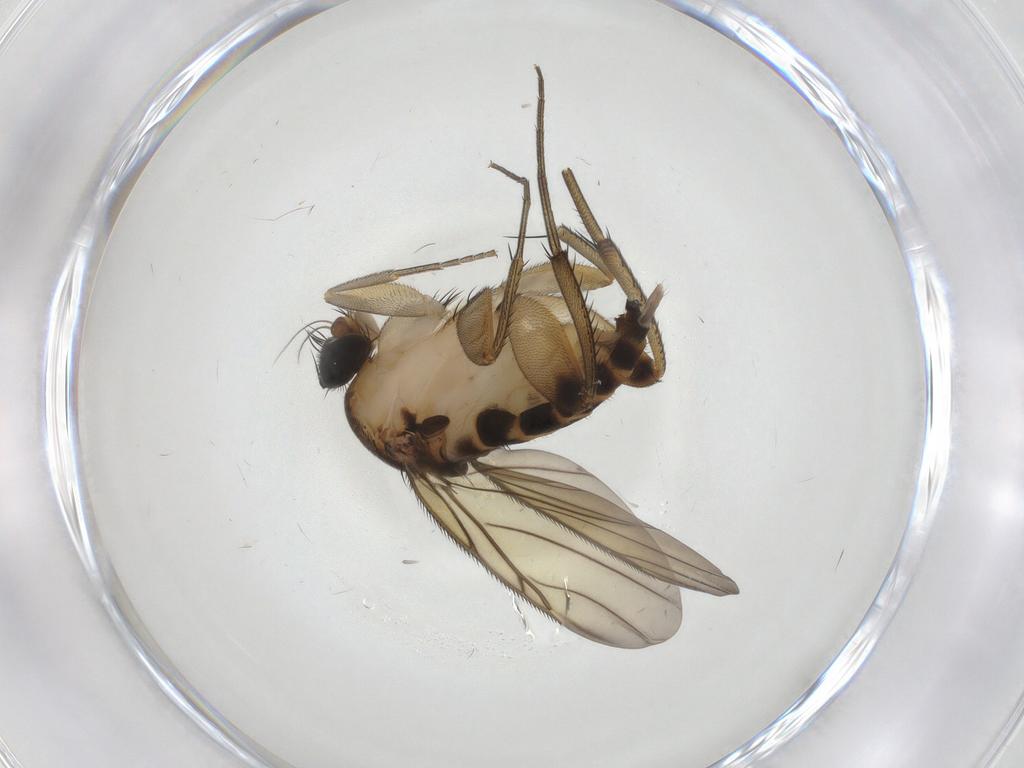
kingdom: Animalia
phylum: Arthropoda
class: Insecta
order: Diptera
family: Phoridae
